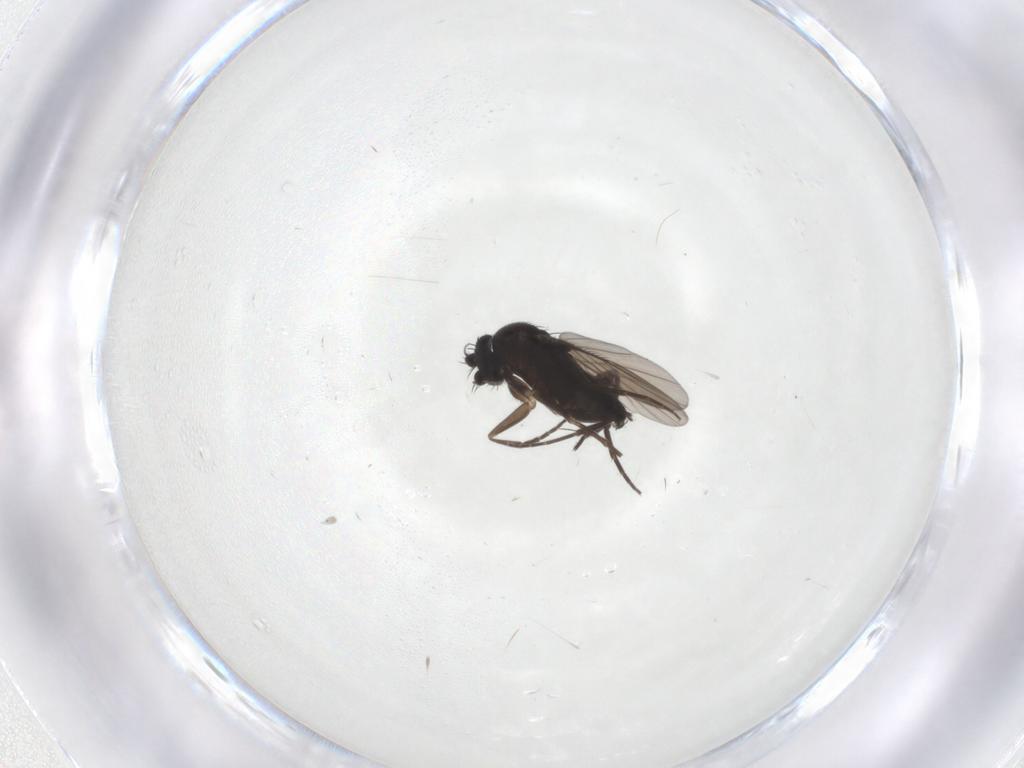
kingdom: Animalia
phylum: Arthropoda
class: Insecta
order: Diptera
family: Phoridae
